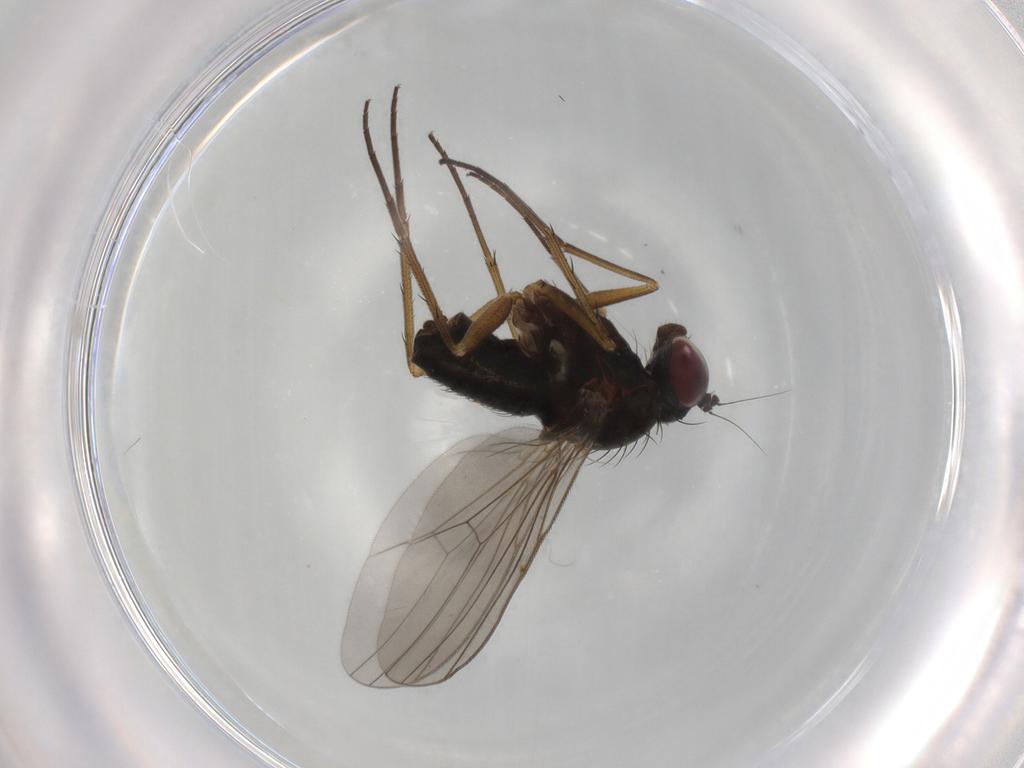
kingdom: Animalia
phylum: Arthropoda
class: Insecta
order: Diptera
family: Dolichopodidae
